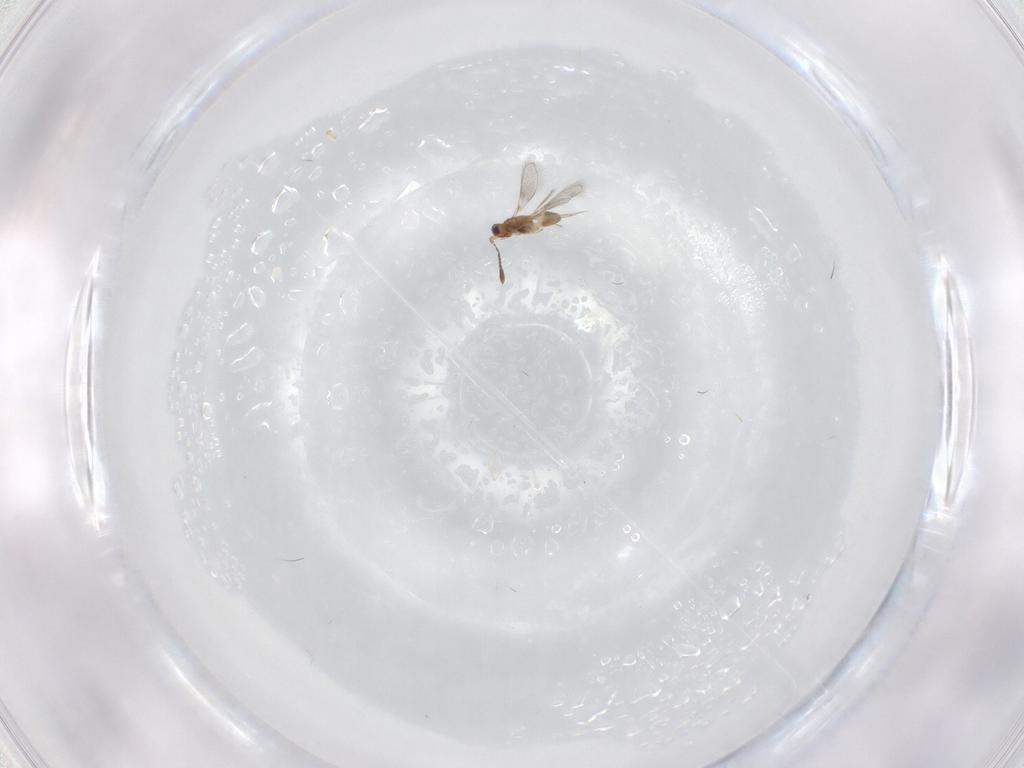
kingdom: Animalia
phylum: Arthropoda
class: Insecta
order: Hymenoptera
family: Mymaridae
